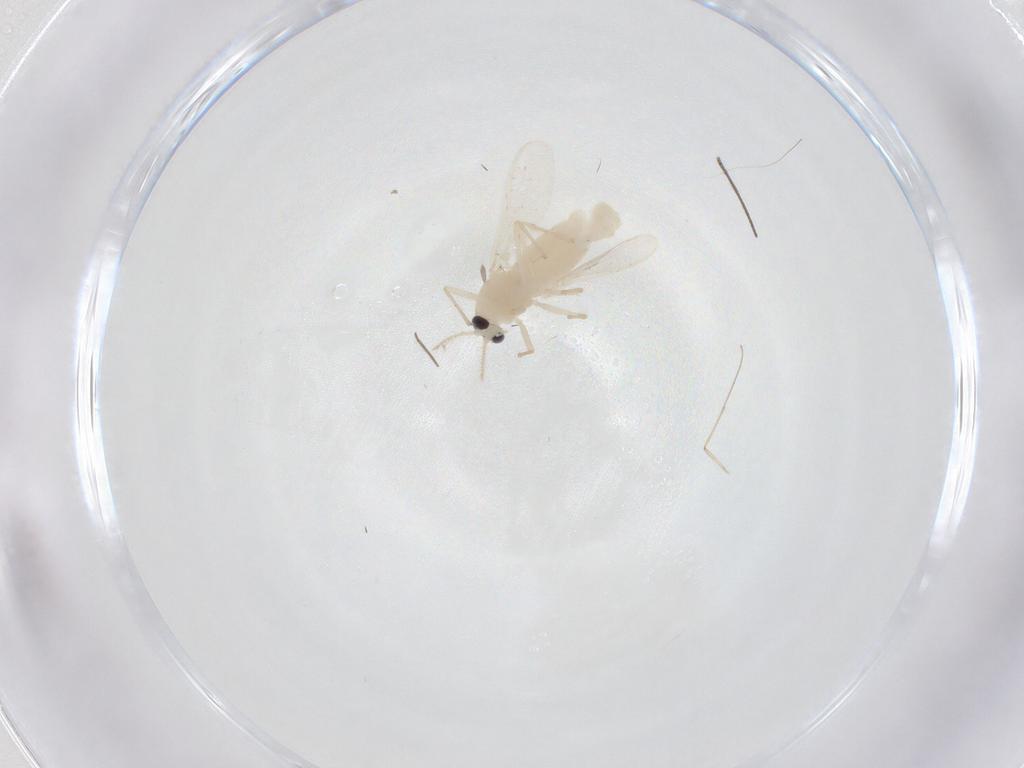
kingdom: Animalia
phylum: Arthropoda
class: Insecta
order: Diptera
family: Chironomidae
